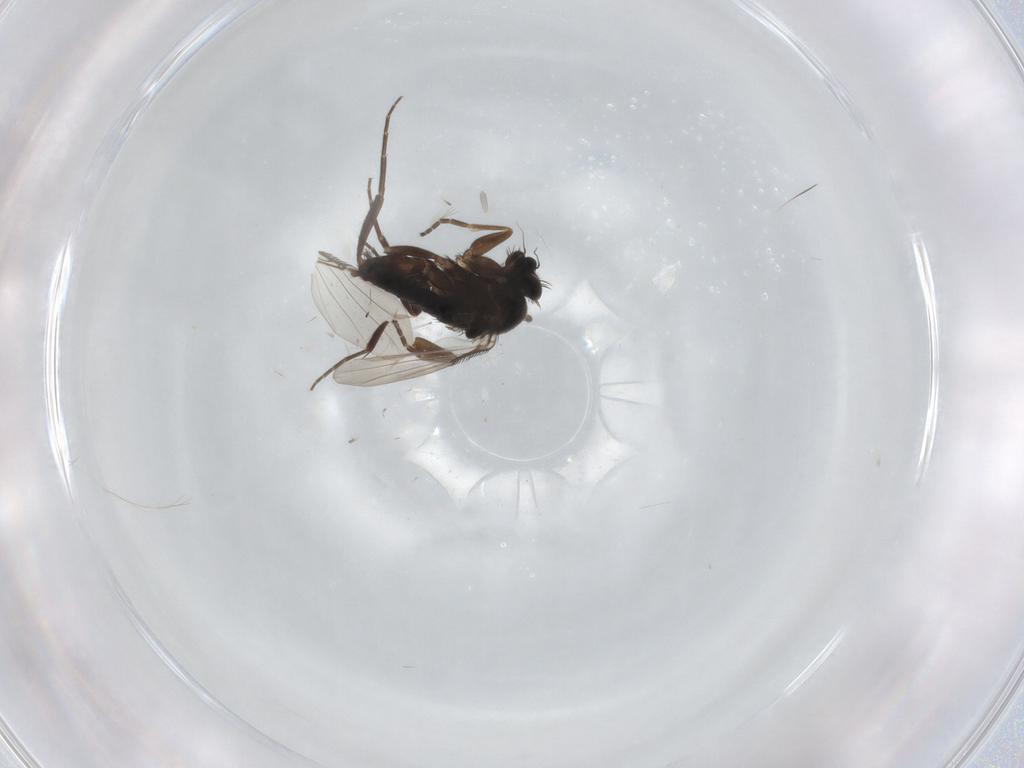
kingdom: Animalia
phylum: Arthropoda
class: Insecta
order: Diptera
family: Phoridae
